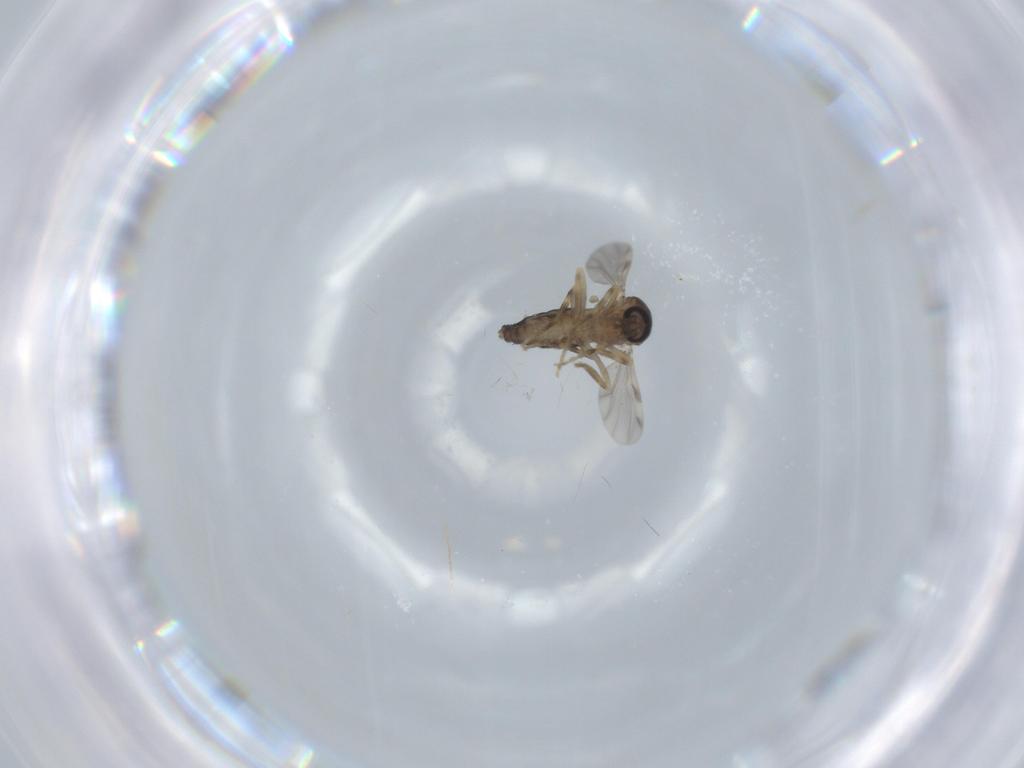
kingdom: Animalia
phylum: Arthropoda
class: Insecta
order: Diptera
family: Ceratopogonidae
